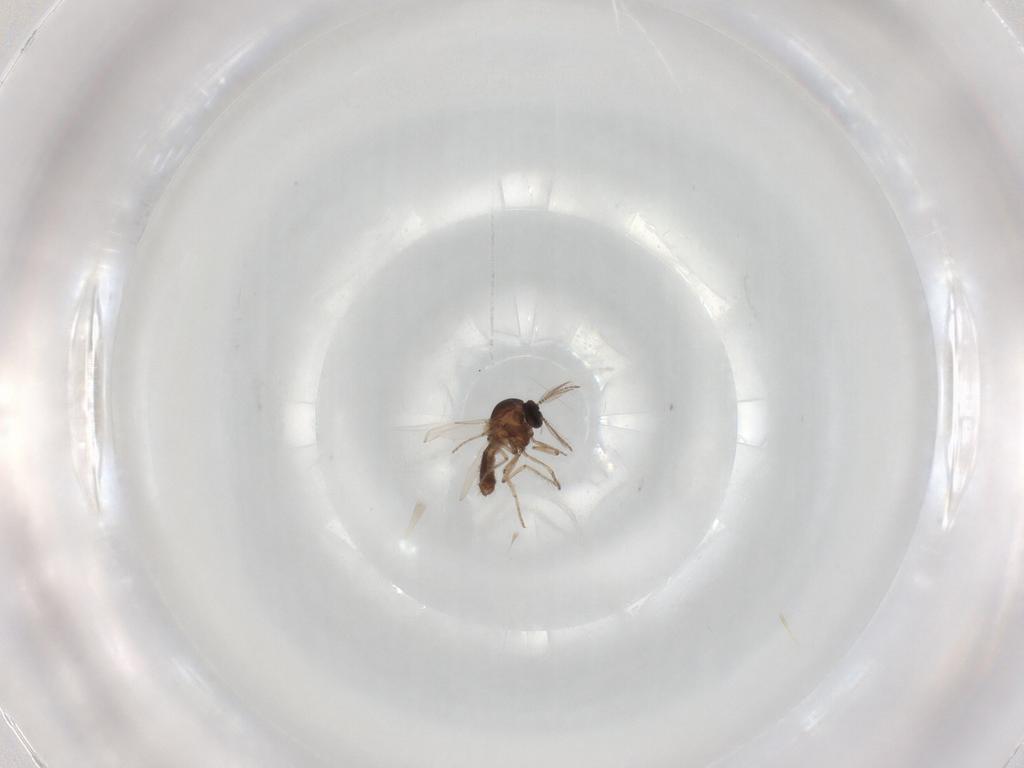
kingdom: Animalia
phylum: Arthropoda
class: Insecta
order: Diptera
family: Ceratopogonidae
